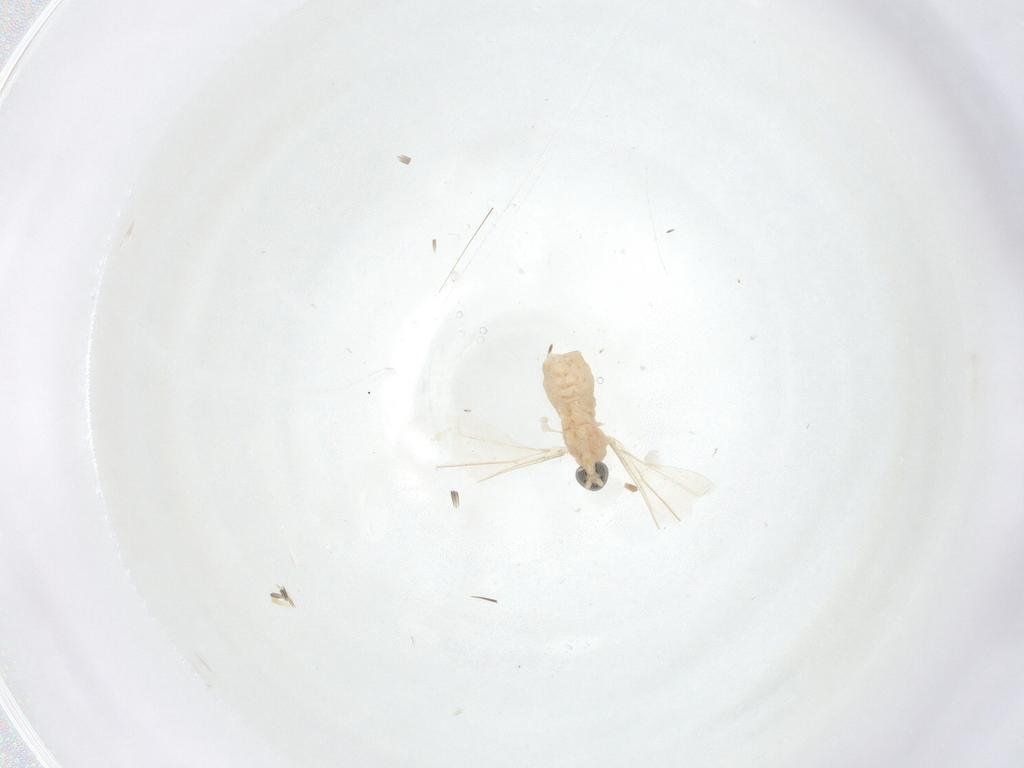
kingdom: Animalia
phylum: Arthropoda
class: Insecta
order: Diptera
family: Cecidomyiidae
